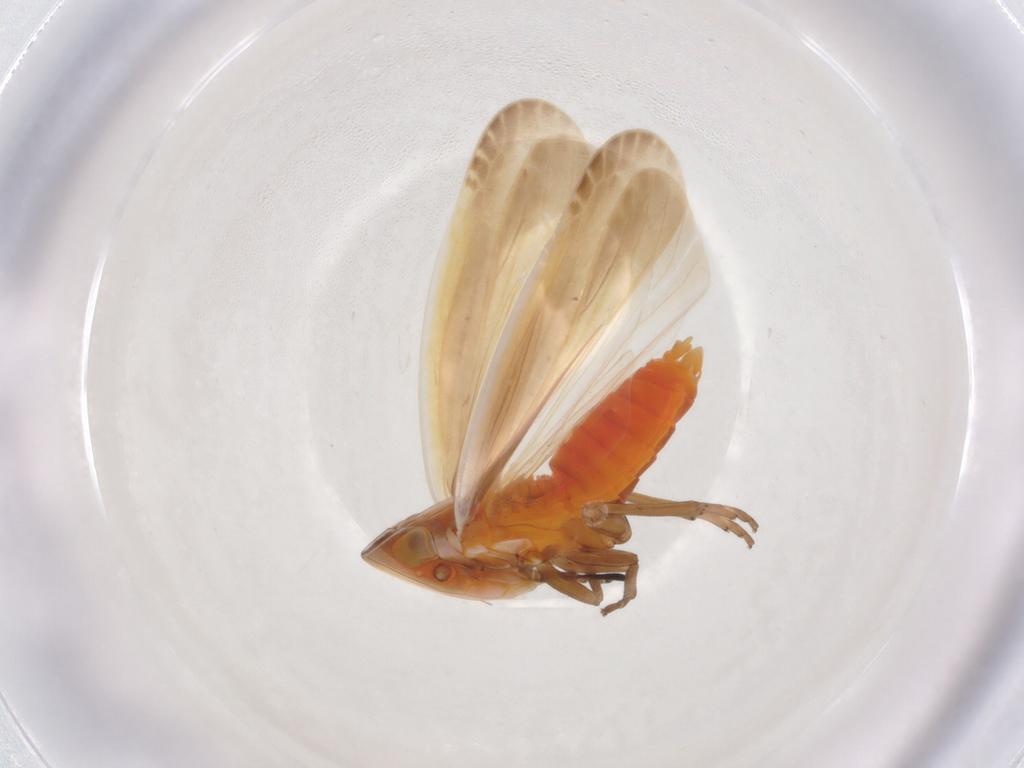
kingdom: Animalia
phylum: Arthropoda
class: Insecta
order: Hemiptera
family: Achilidae
